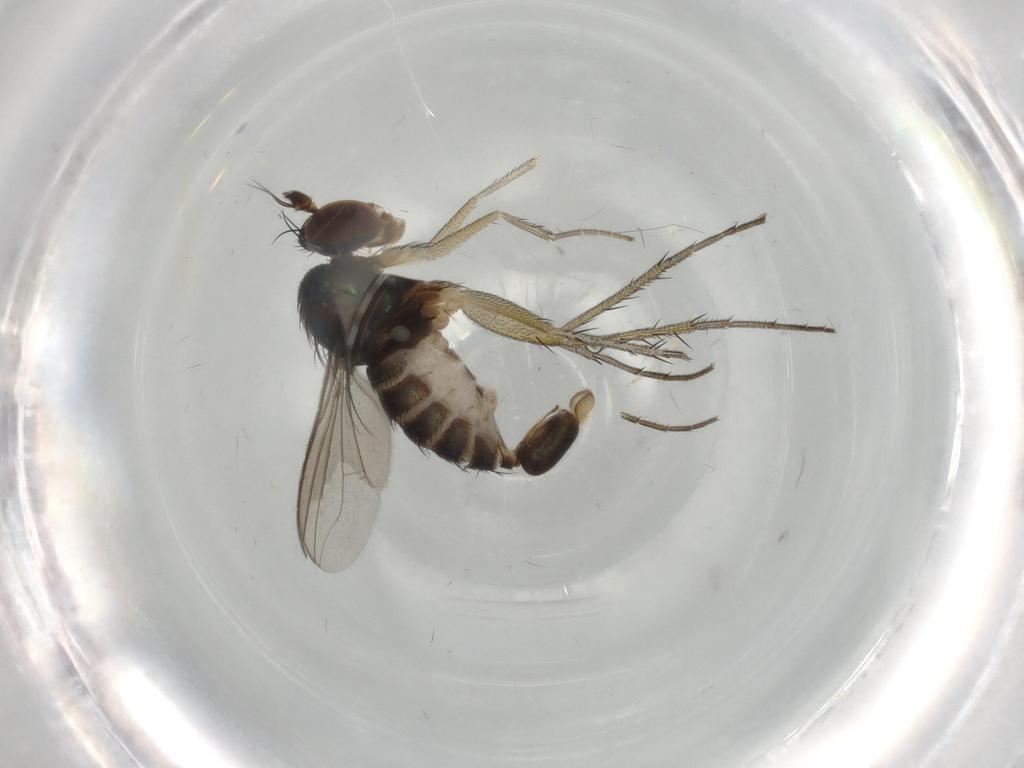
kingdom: Animalia
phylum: Arthropoda
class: Insecta
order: Diptera
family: Dolichopodidae
